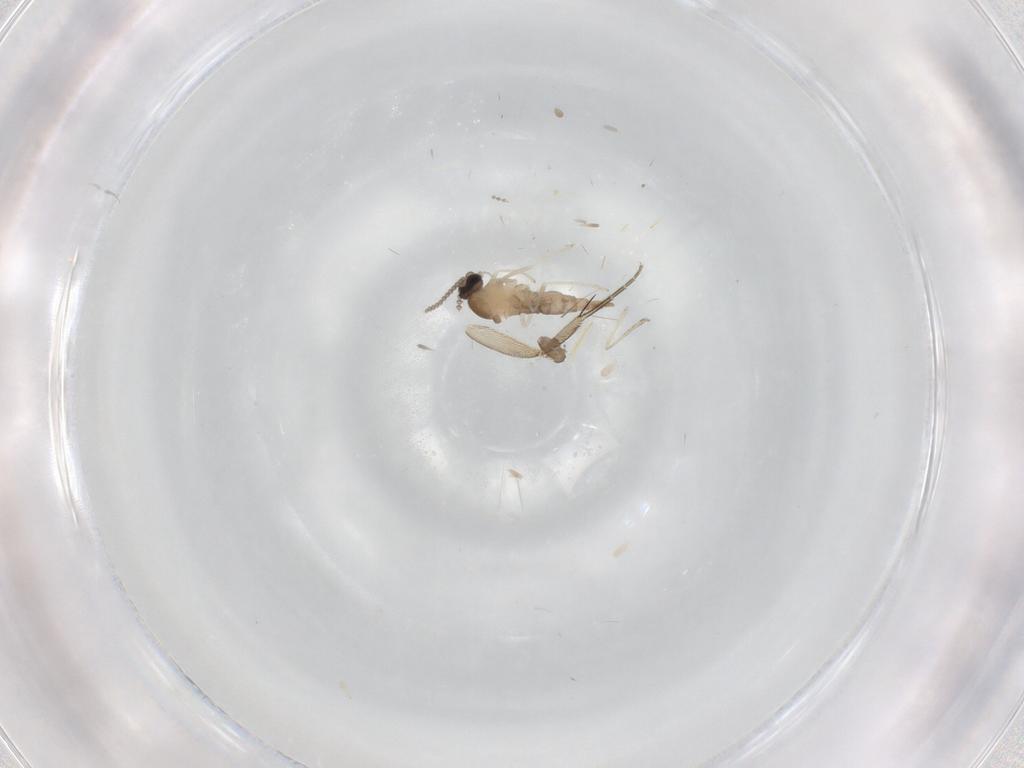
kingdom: Animalia
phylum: Arthropoda
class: Insecta
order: Diptera
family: Cecidomyiidae
